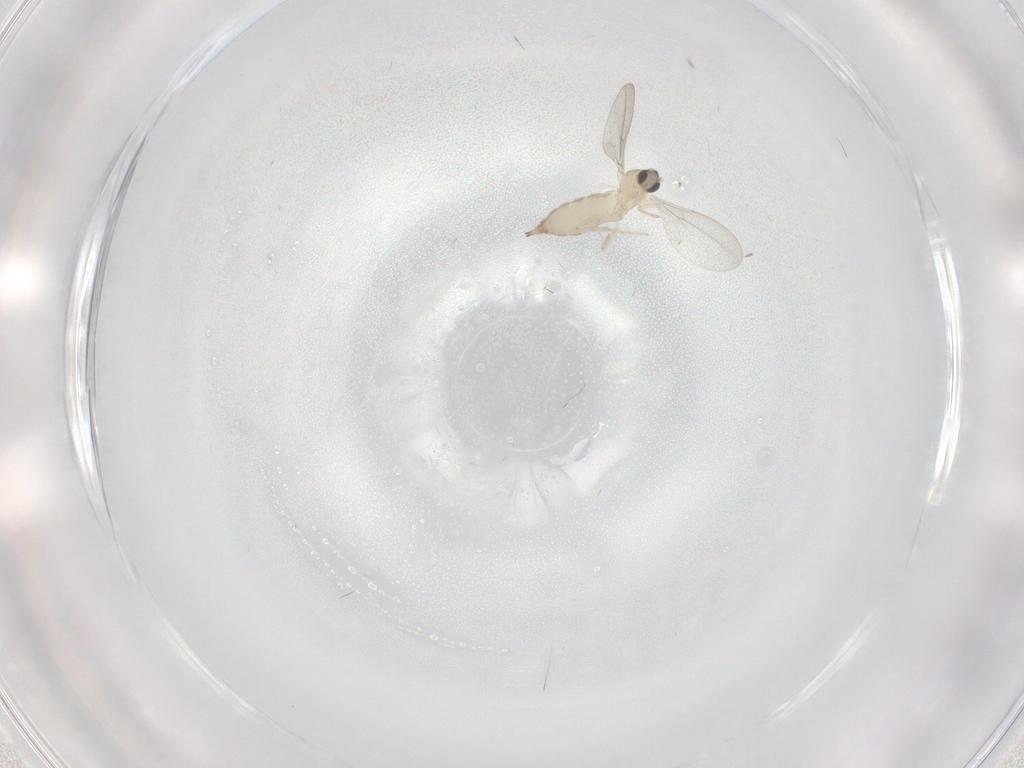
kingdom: Animalia
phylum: Arthropoda
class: Insecta
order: Diptera
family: Cecidomyiidae
